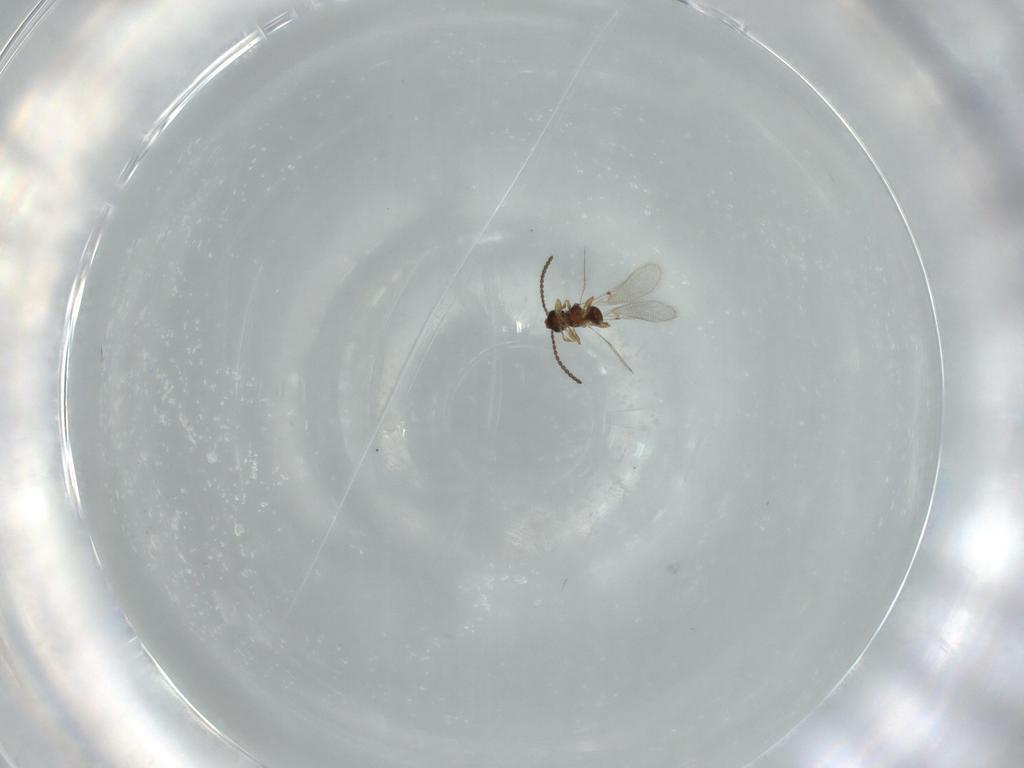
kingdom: Animalia
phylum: Arthropoda
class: Insecta
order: Hymenoptera
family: Diapriidae
